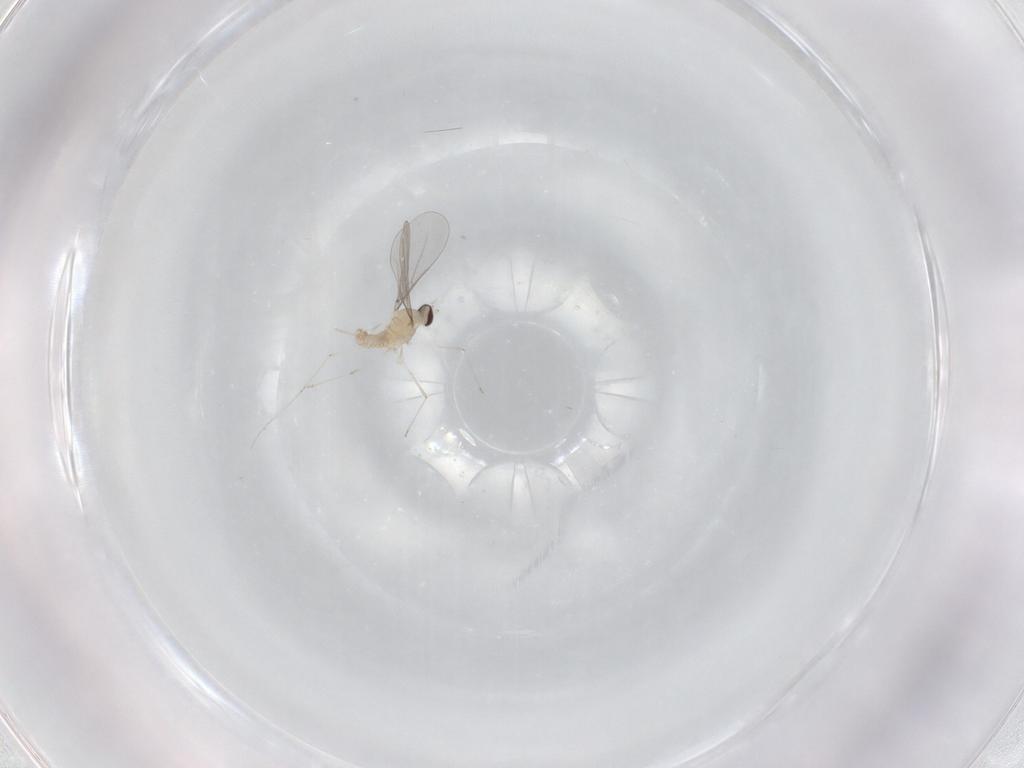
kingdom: Animalia
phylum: Arthropoda
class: Insecta
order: Diptera
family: Cecidomyiidae
